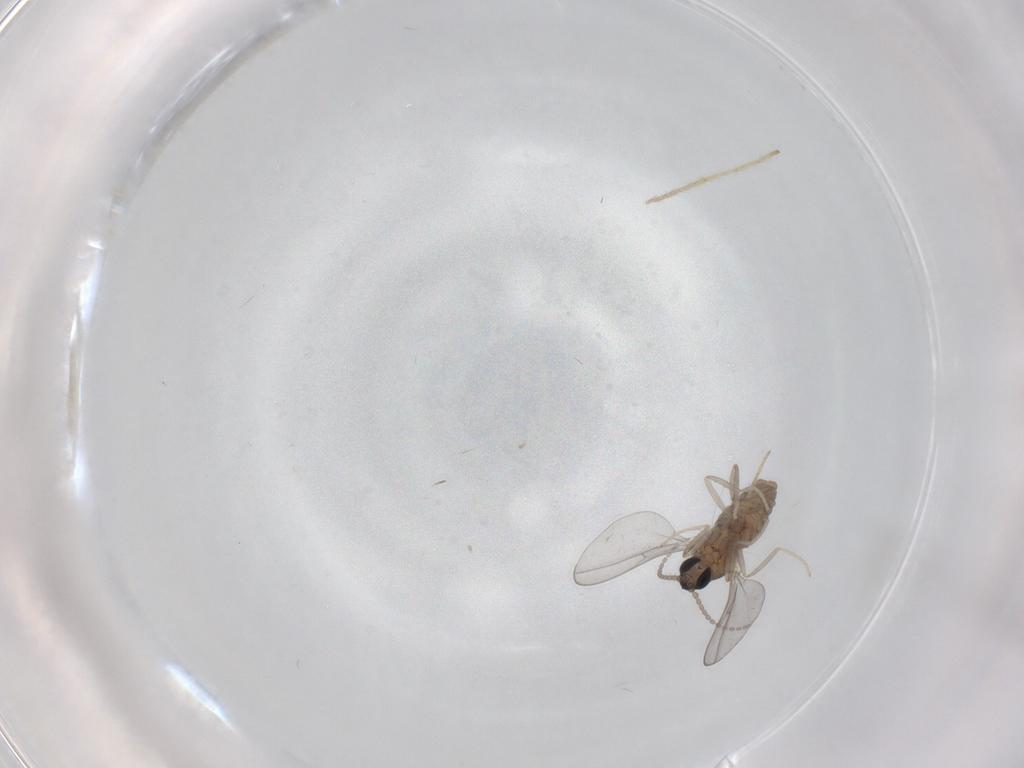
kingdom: Animalia
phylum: Arthropoda
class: Insecta
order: Diptera
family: Cecidomyiidae
